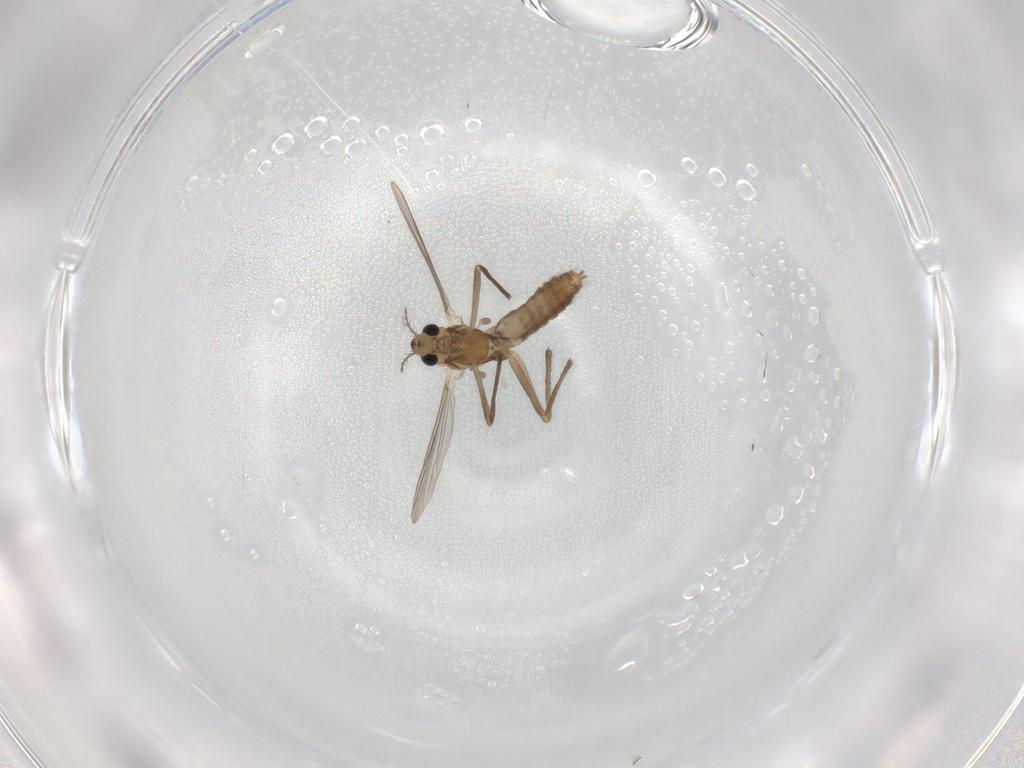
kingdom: Animalia
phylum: Arthropoda
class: Insecta
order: Diptera
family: Chironomidae
